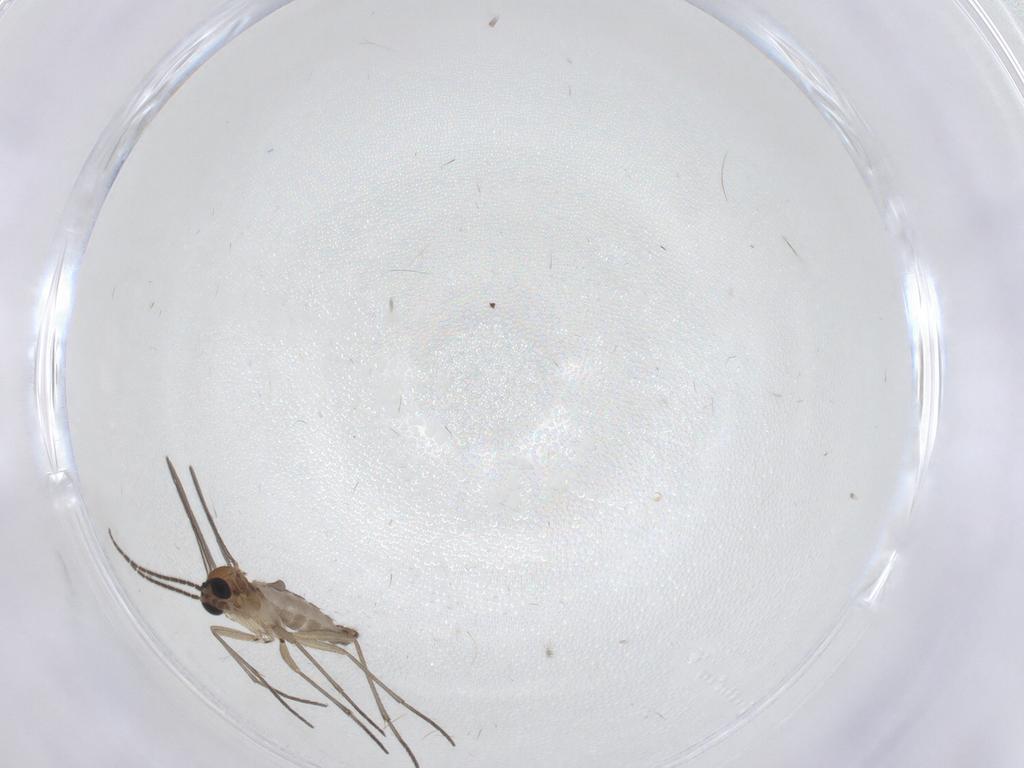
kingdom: Animalia
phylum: Arthropoda
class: Insecta
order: Diptera
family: Sciaridae
